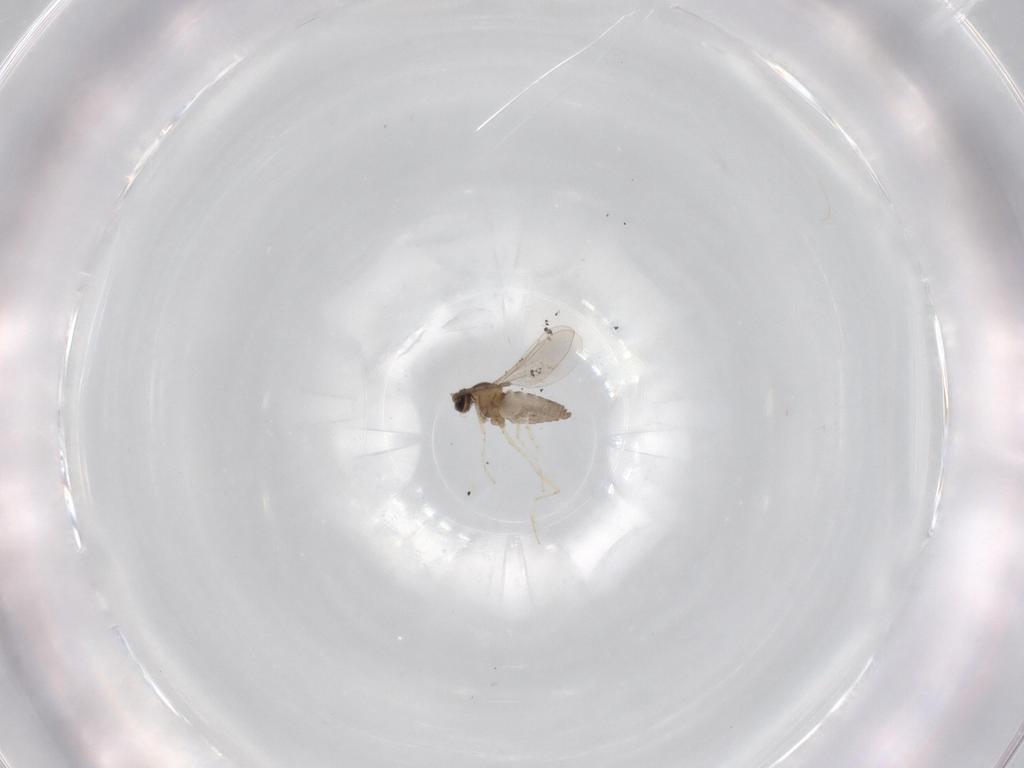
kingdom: Animalia
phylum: Arthropoda
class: Insecta
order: Diptera
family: Cecidomyiidae
